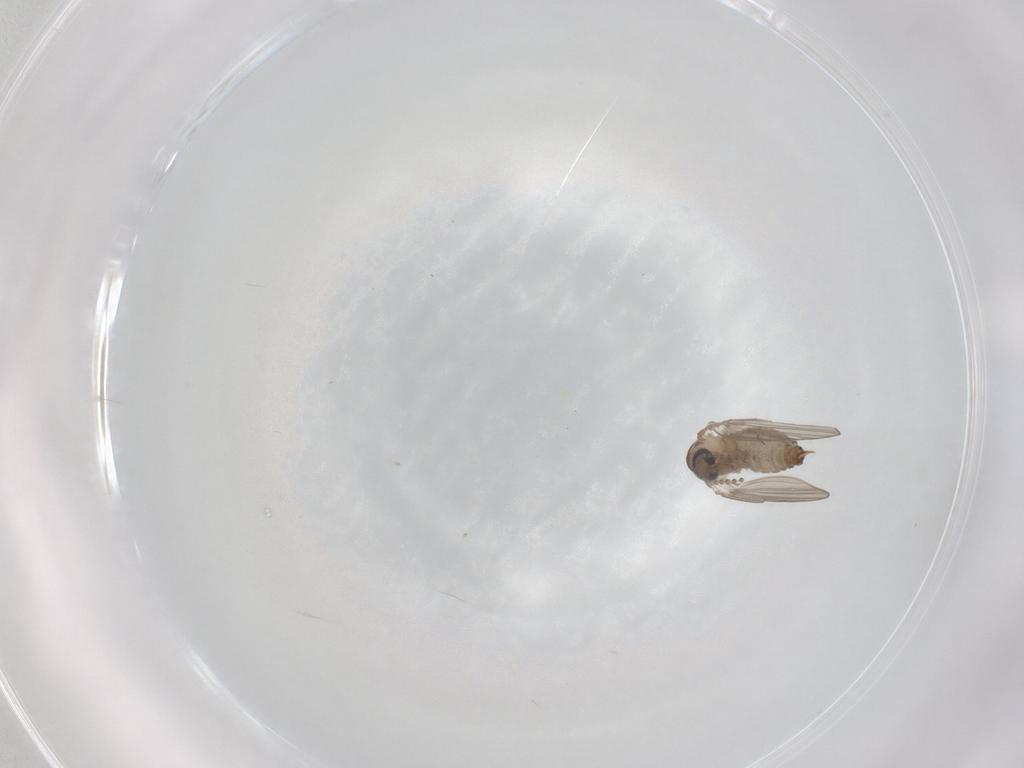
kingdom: Animalia
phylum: Arthropoda
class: Insecta
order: Diptera
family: Psychodidae
